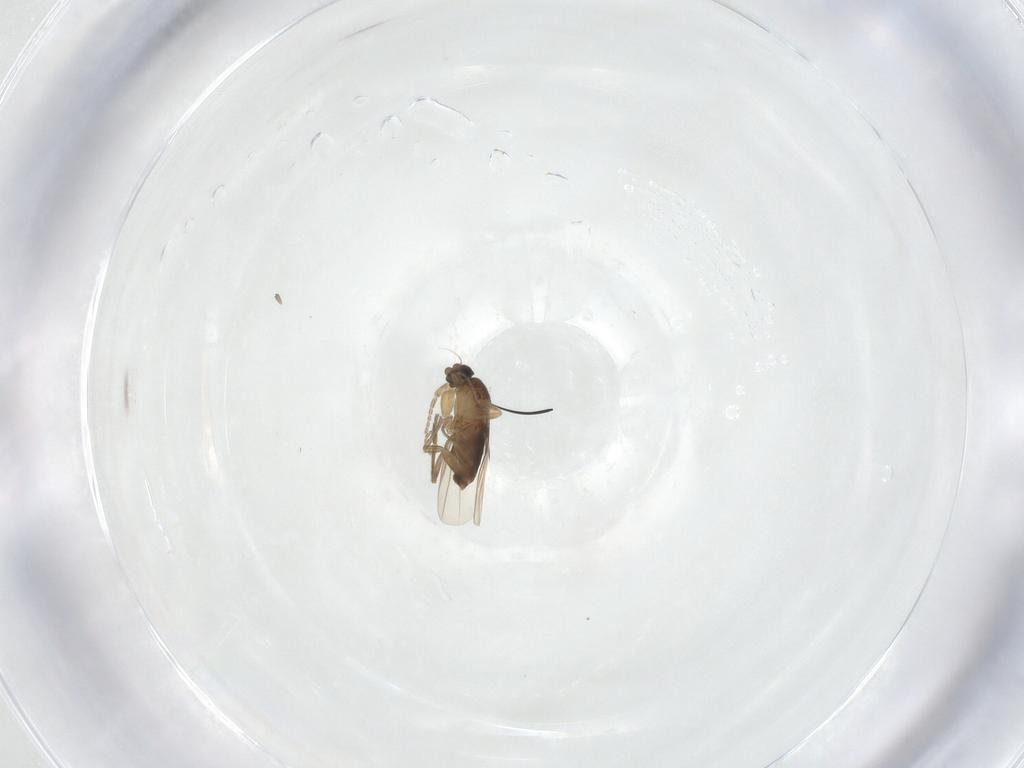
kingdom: Animalia
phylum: Arthropoda
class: Insecta
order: Diptera
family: Phoridae
